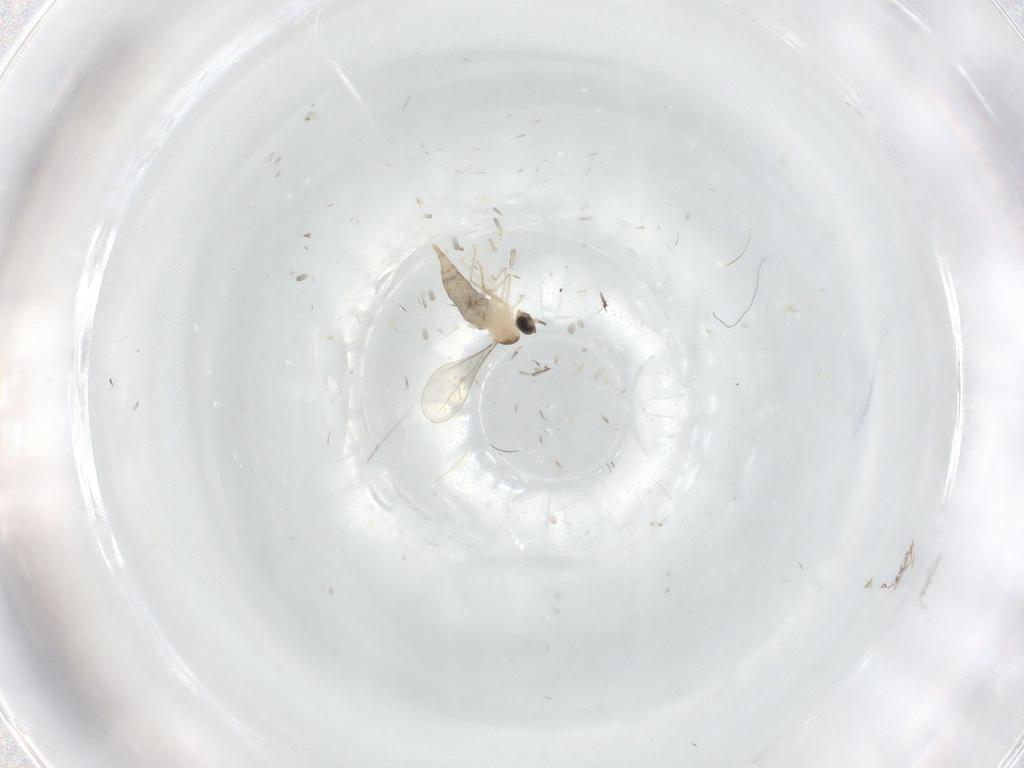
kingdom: Animalia
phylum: Arthropoda
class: Insecta
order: Diptera
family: Cecidomyiidae
